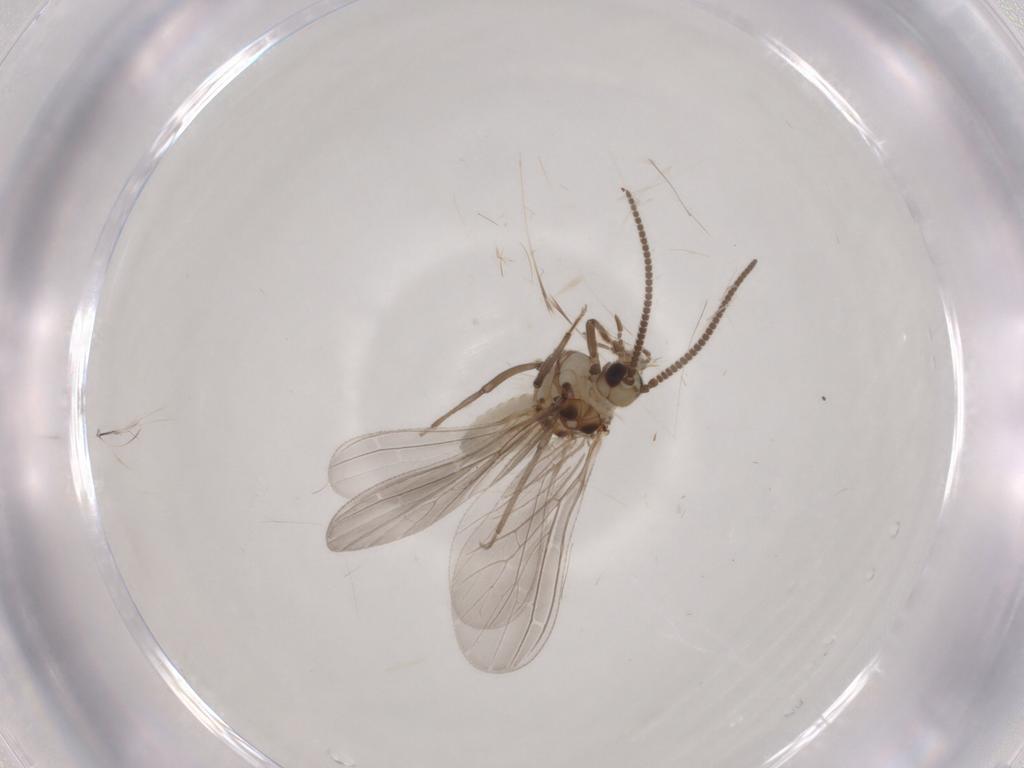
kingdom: Animalia
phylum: Arthropoda
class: Insecta
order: Neuroptera
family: Coniopterygidae
